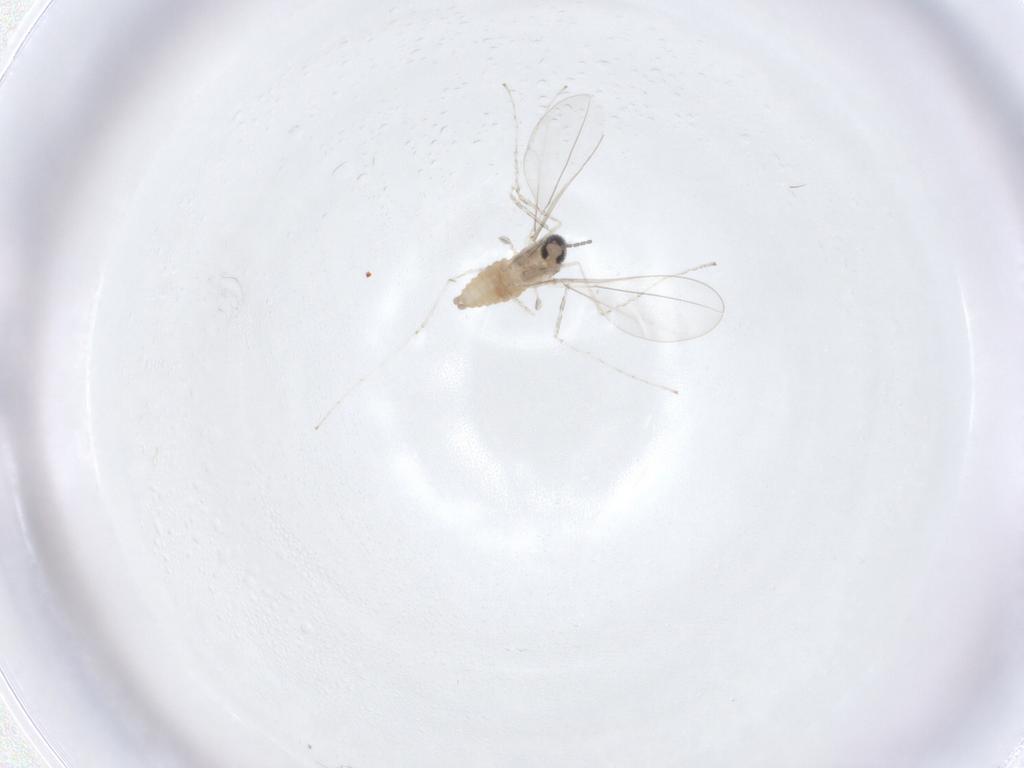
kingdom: Animalia
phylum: Arthropoda
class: Insecta
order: Diptera
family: Cecidomyiidae
